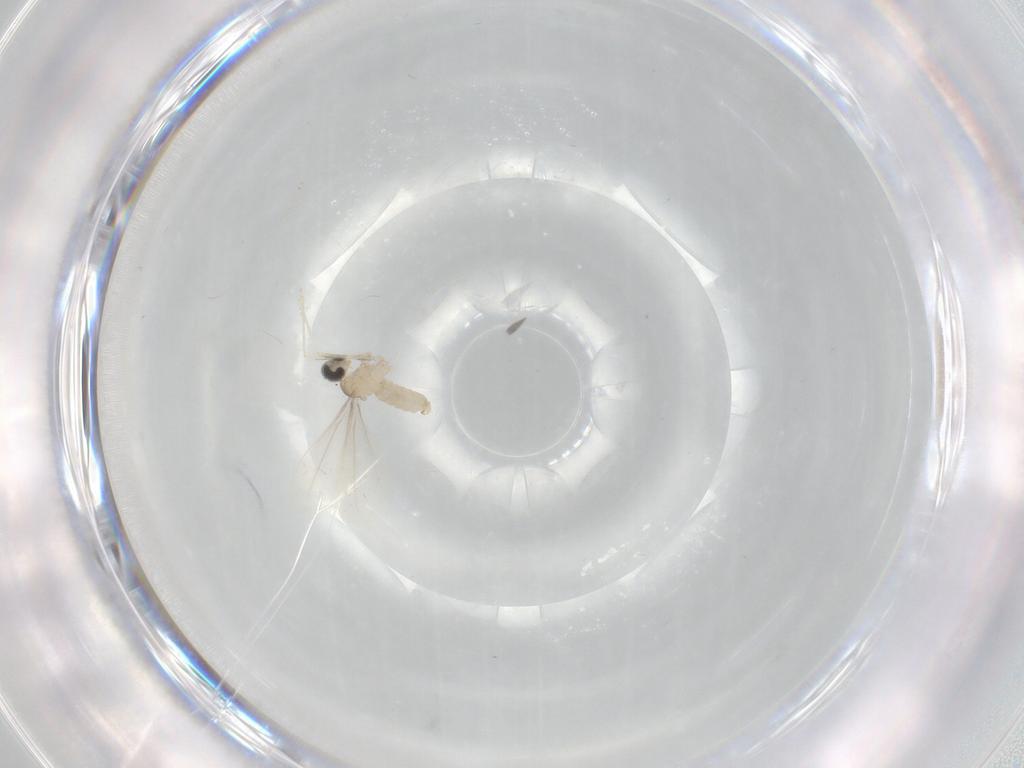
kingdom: Animalia
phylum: Arthropoda
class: Insecta
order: Diptera
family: Cecidomyiidae
